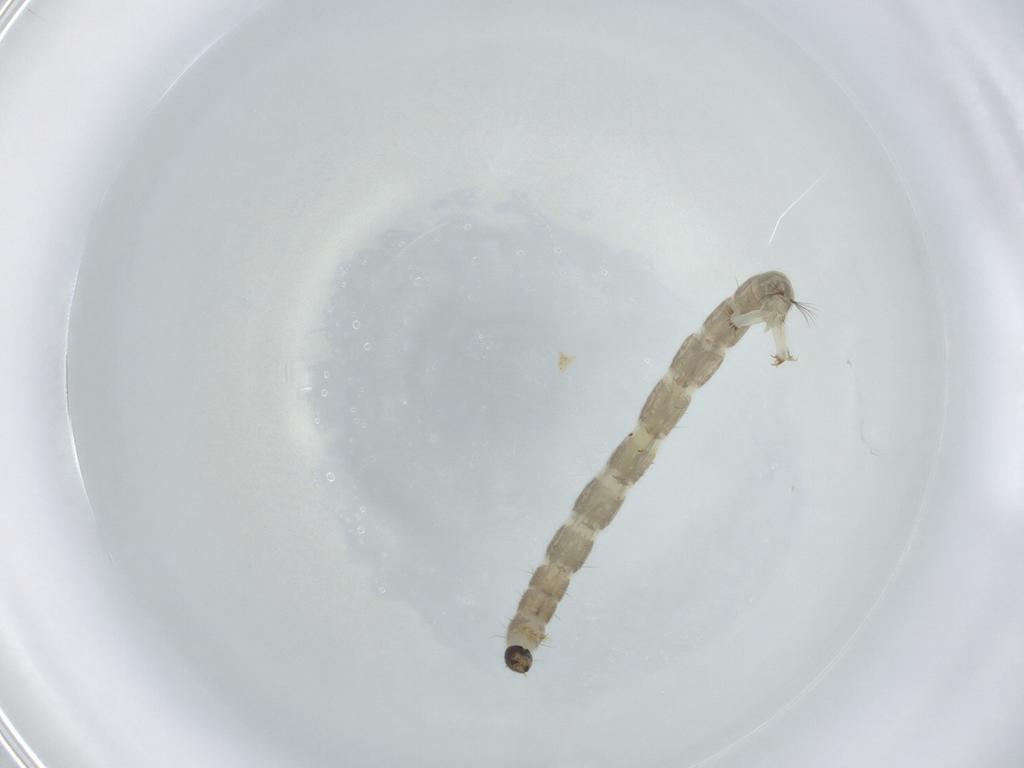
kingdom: Animalia
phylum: Arthropoda
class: Insecta
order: Diptera
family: Chironomidae
